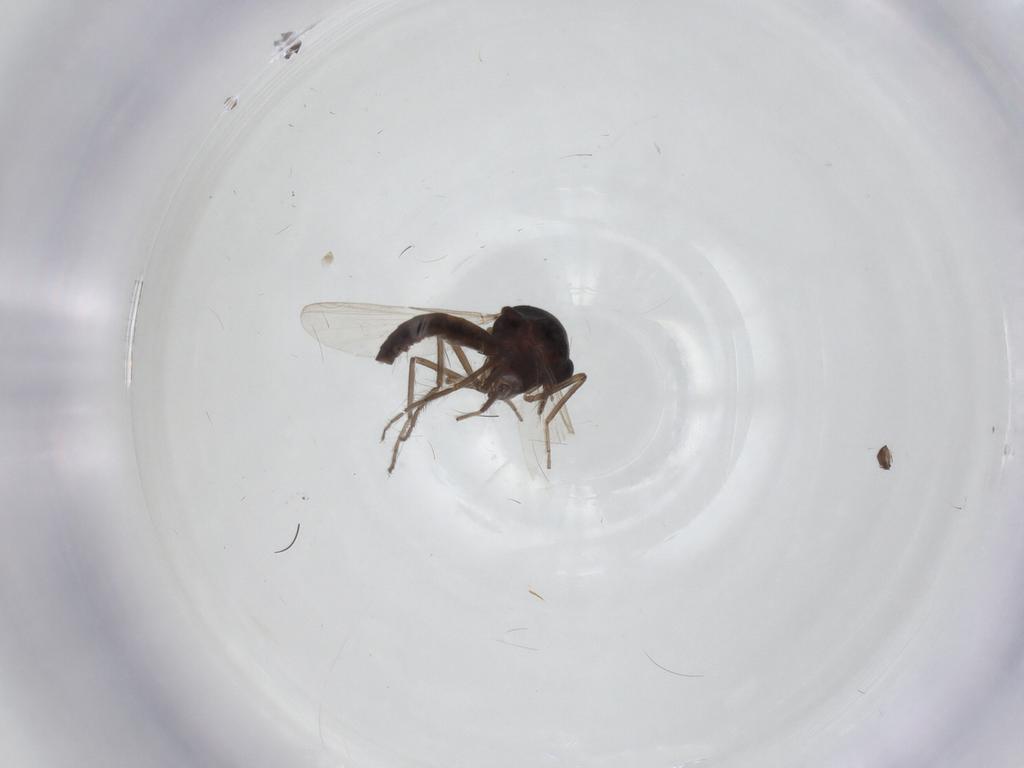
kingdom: Animalia
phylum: Arthropoda
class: Insecta
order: Diptera
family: Ceratopogonidae
